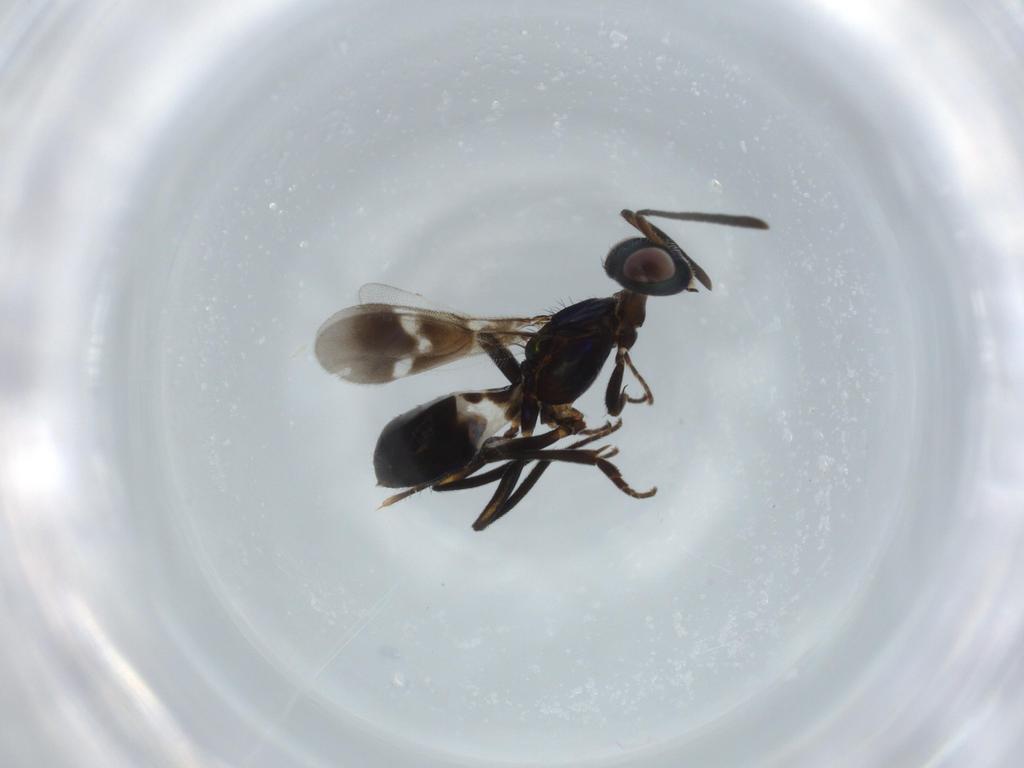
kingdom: Animalia
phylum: Arthropoda
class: Insecta
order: Hymenoptera
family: Eupelmidae
